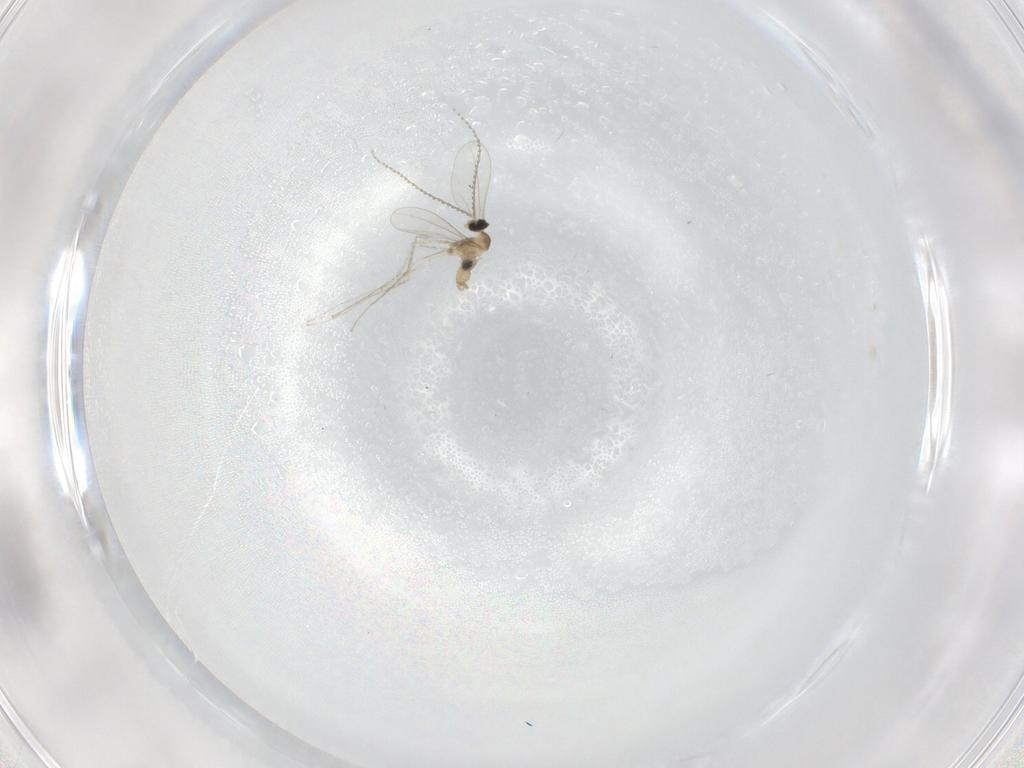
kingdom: Animalia
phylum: Arthropoda
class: Insecta
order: Diptera
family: Cecidomyiidae
